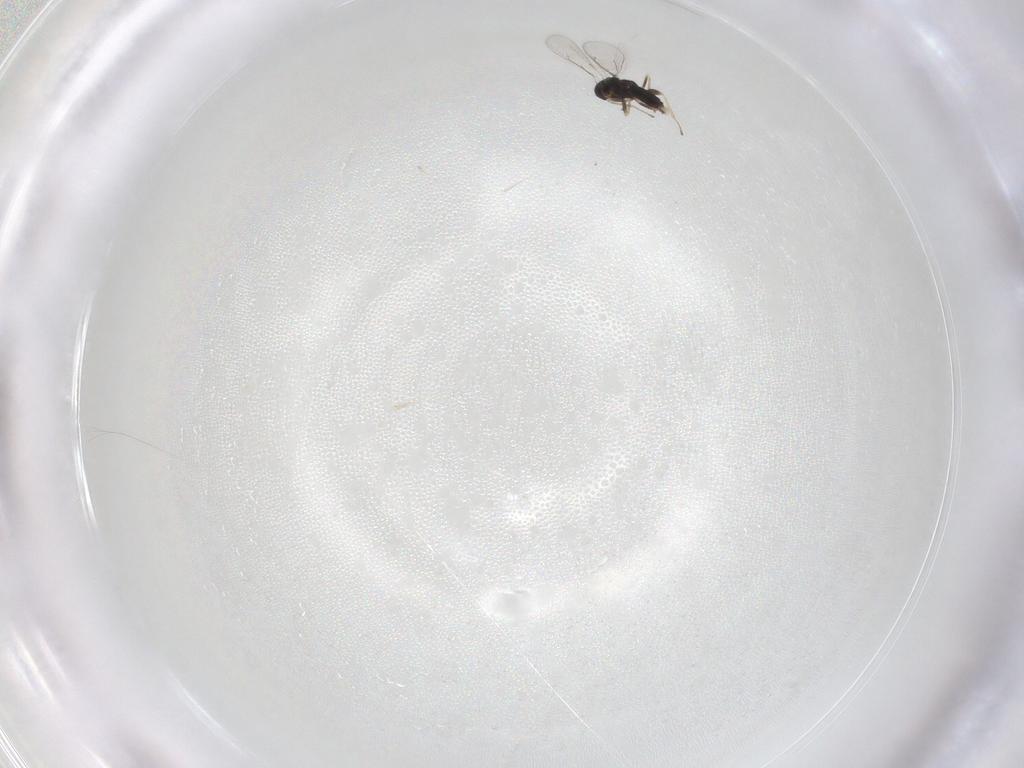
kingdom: Animalia
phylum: Arthropoda
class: Insecta
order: Hymenoptera
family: Eulophidae
